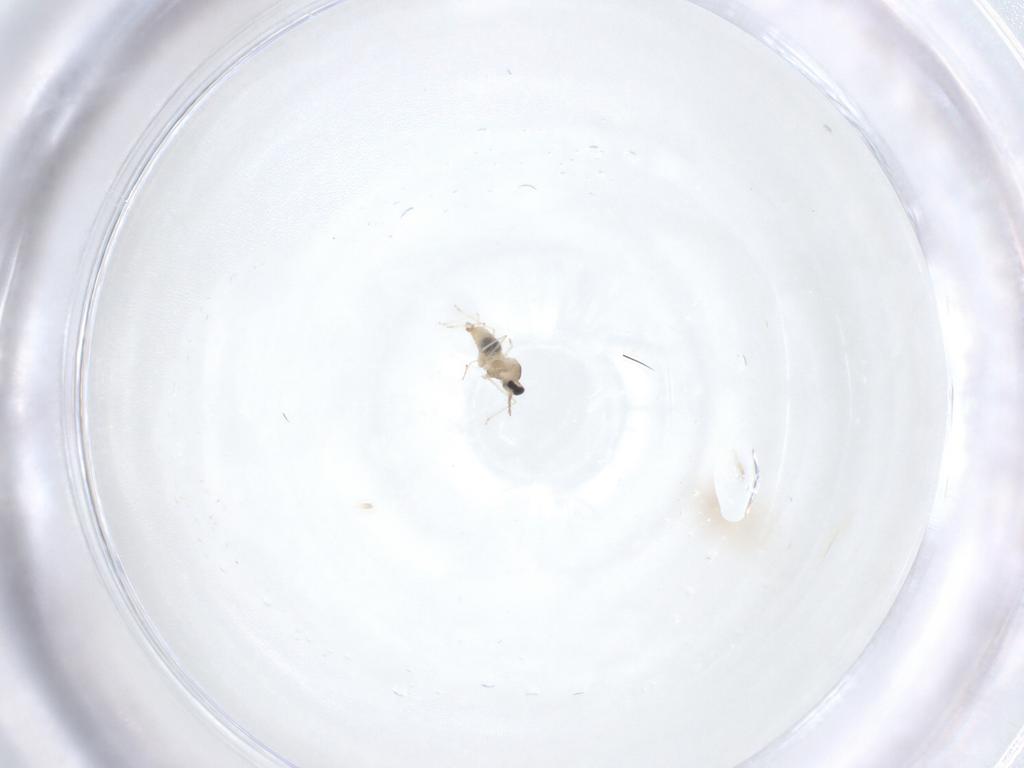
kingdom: Animalia
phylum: Arthropoda
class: Insecta
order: Diptera
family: Cecidomyiidae
